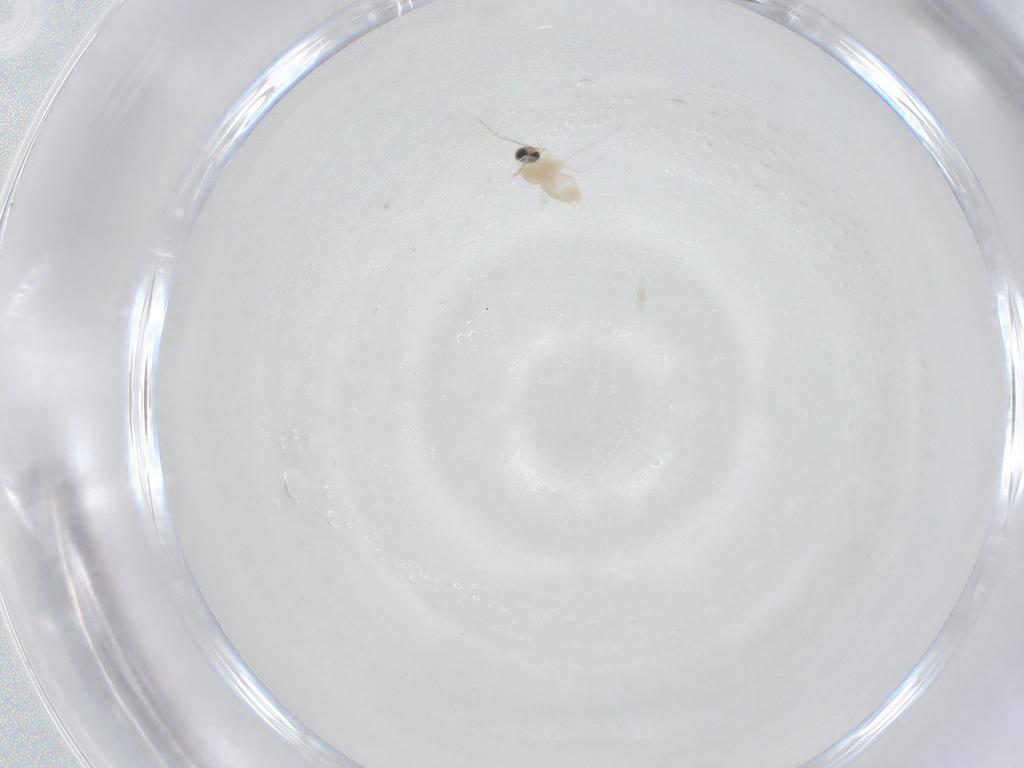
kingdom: Animalia
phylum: Arthropoda
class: Insecta
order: Diptera
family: Cecidomyiidae
